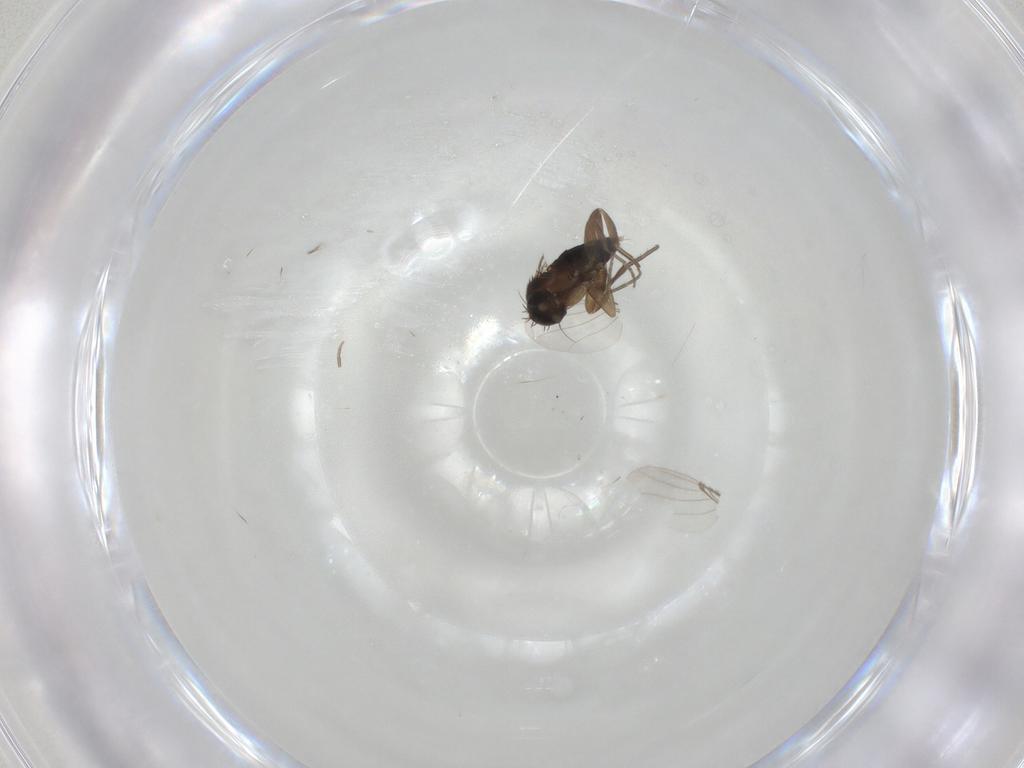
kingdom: Animalia
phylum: Arthropoda
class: Insecta
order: Diptera
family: Phoridae
